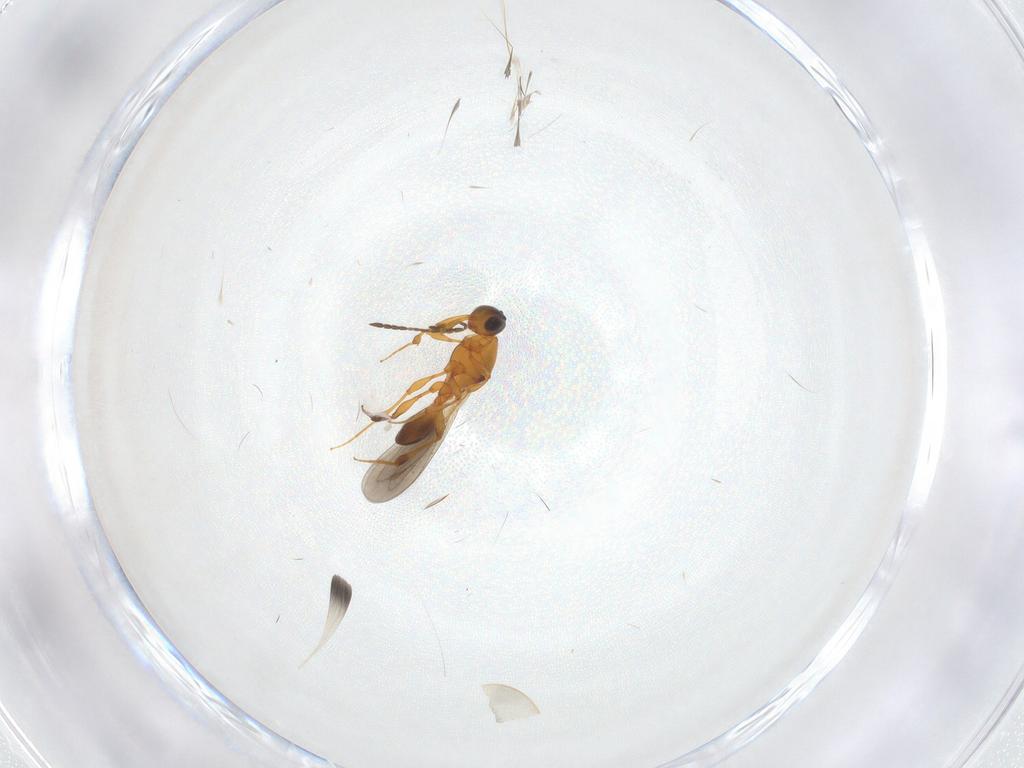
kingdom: Animalia
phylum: Arthropoda
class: Insecta
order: Hymenoptera
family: Platygastridae
